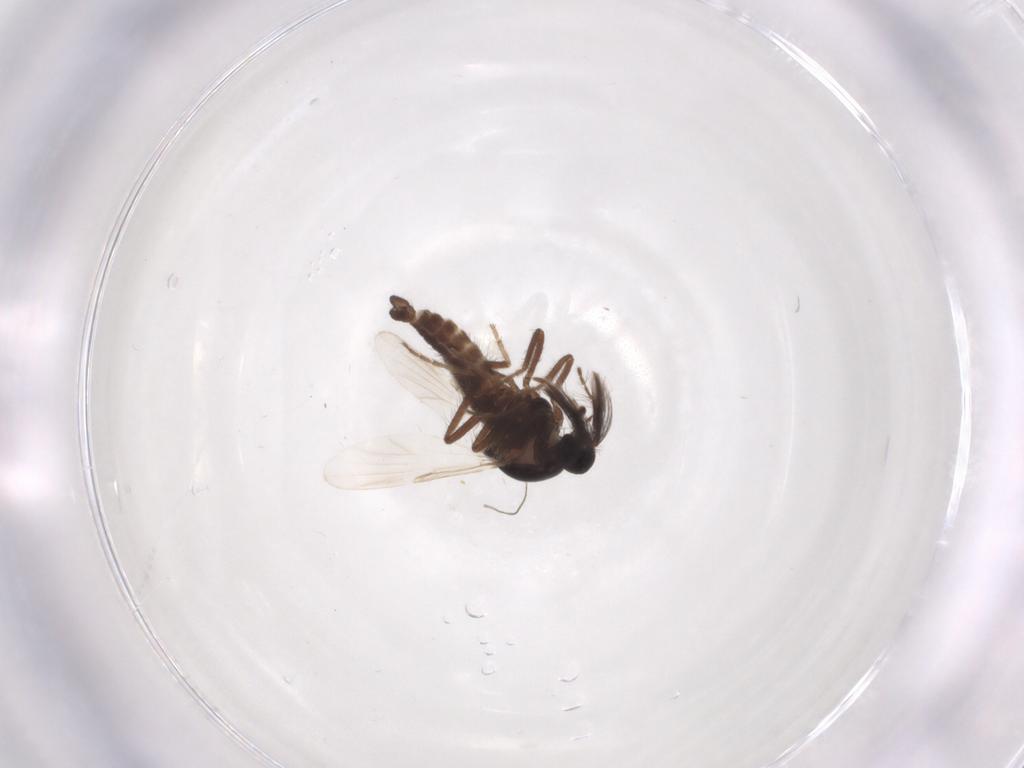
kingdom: Animalia
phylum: Arthropoda
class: Insecta
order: Diptera
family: Ceratopogonidae
